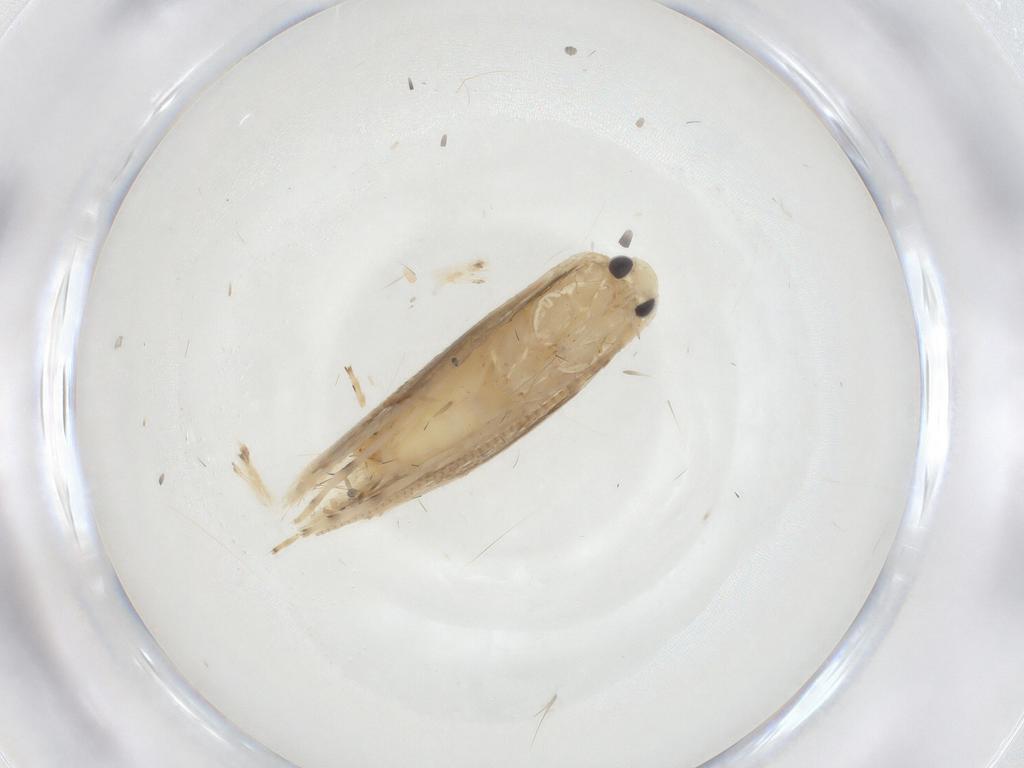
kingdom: Animalia
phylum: Arthropoda
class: Insecta
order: Lepidoptera
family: Gracillariidae
